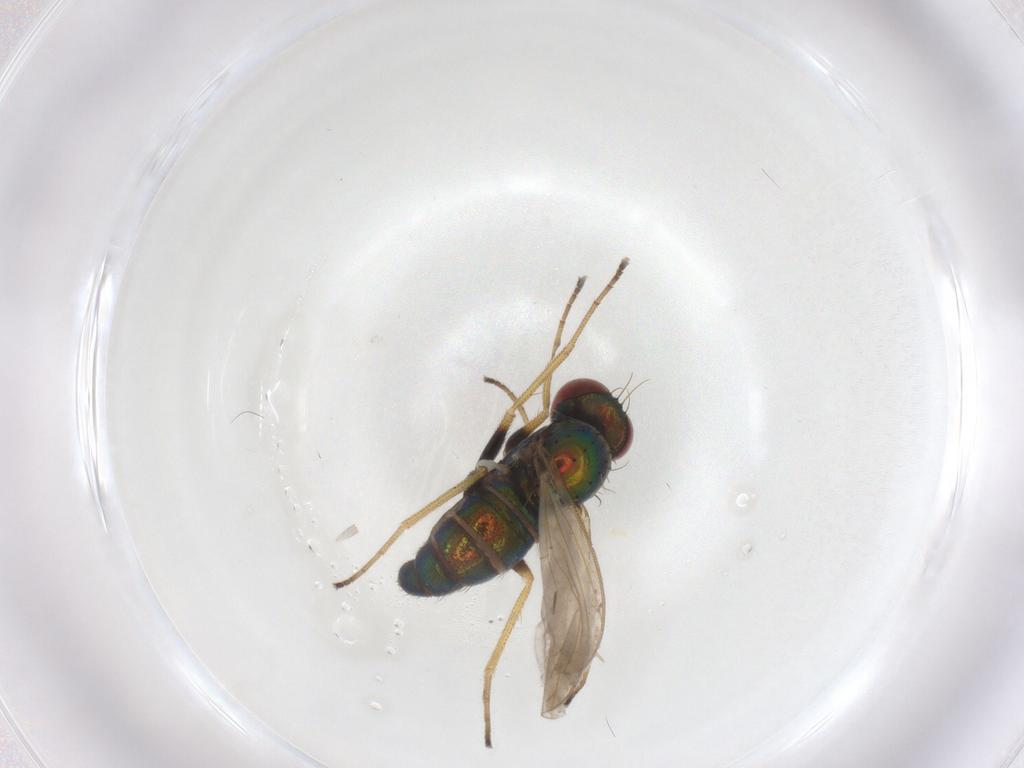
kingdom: Animalia
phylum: Arthropoda
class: Insecta
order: Diptera
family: Dolichopodidae
